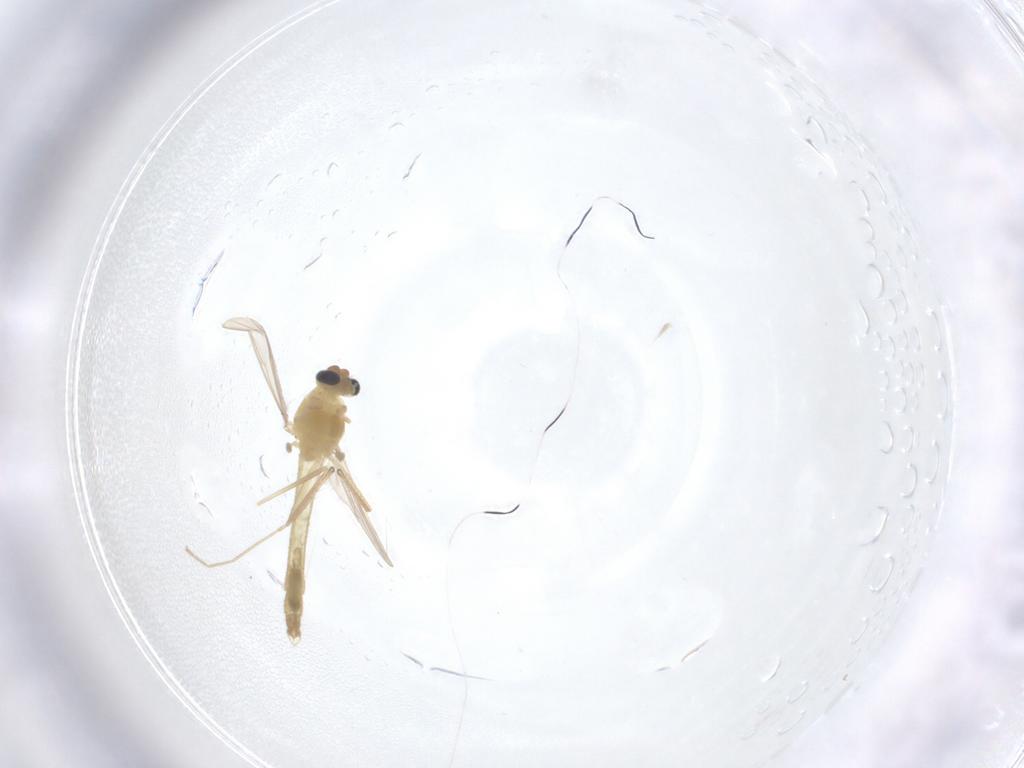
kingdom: Animalia
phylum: Arthropoda
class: Insecta
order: Diptera
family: Chironomidae
